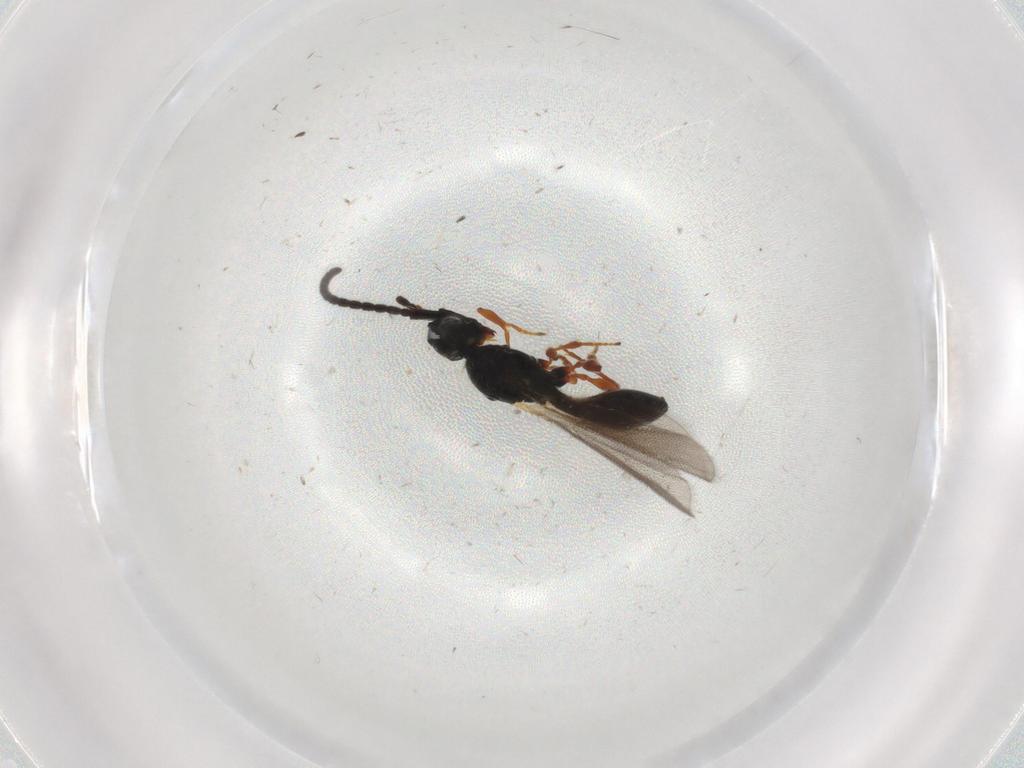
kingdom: Animalia
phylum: Arthropoda
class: Insecta
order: Hymenoptera
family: Diapriidae
